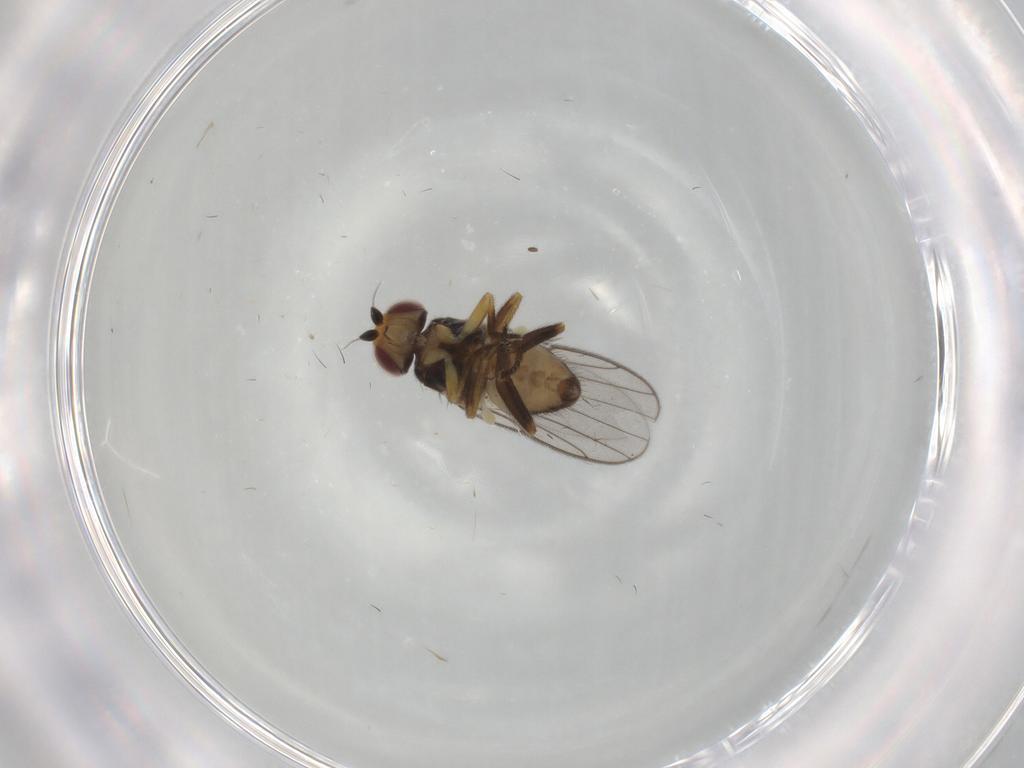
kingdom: Animalia
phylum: Arthropoda
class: Insecta
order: Diptera
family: Chloropidae
